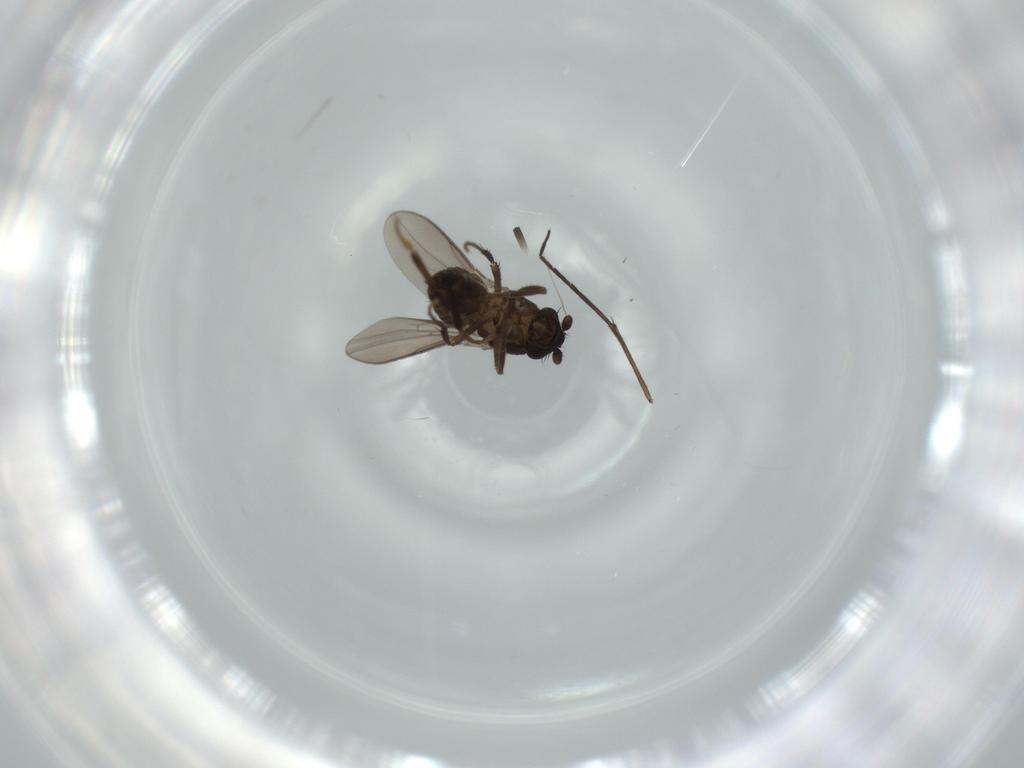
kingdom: Animalia
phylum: Arthropoda
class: Insecta
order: Diptera
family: Sphaeroceridae
